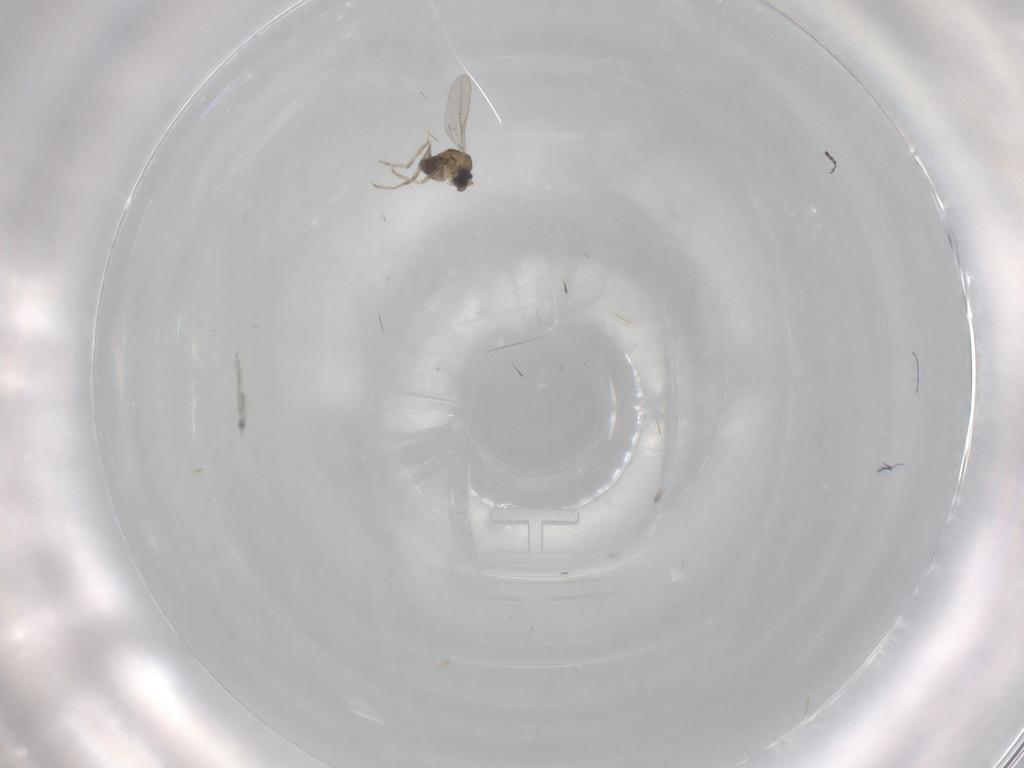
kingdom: Animalia
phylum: Arthropoda
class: Insecta
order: Diptera
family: Cecidomyiidae
